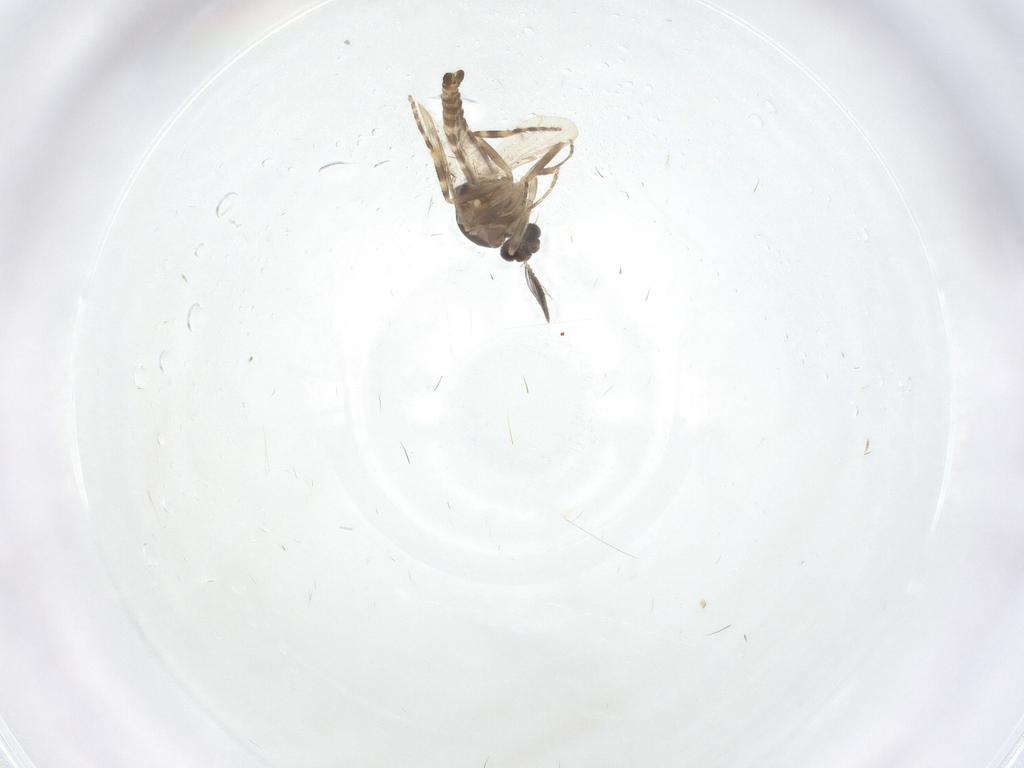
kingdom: Animalia
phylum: Arthropoda
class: Insecta
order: Diptera
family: Ceratopogonidae
